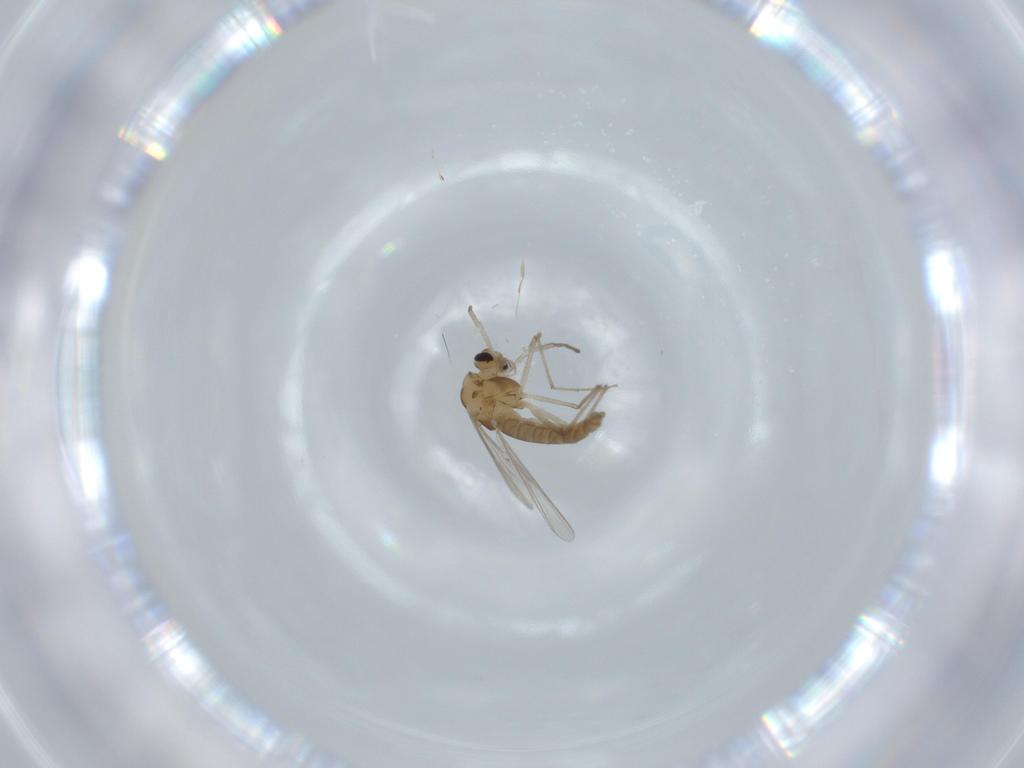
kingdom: Animalia
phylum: Arthropoda
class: Insecta
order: Diptera
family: Chironomidae
